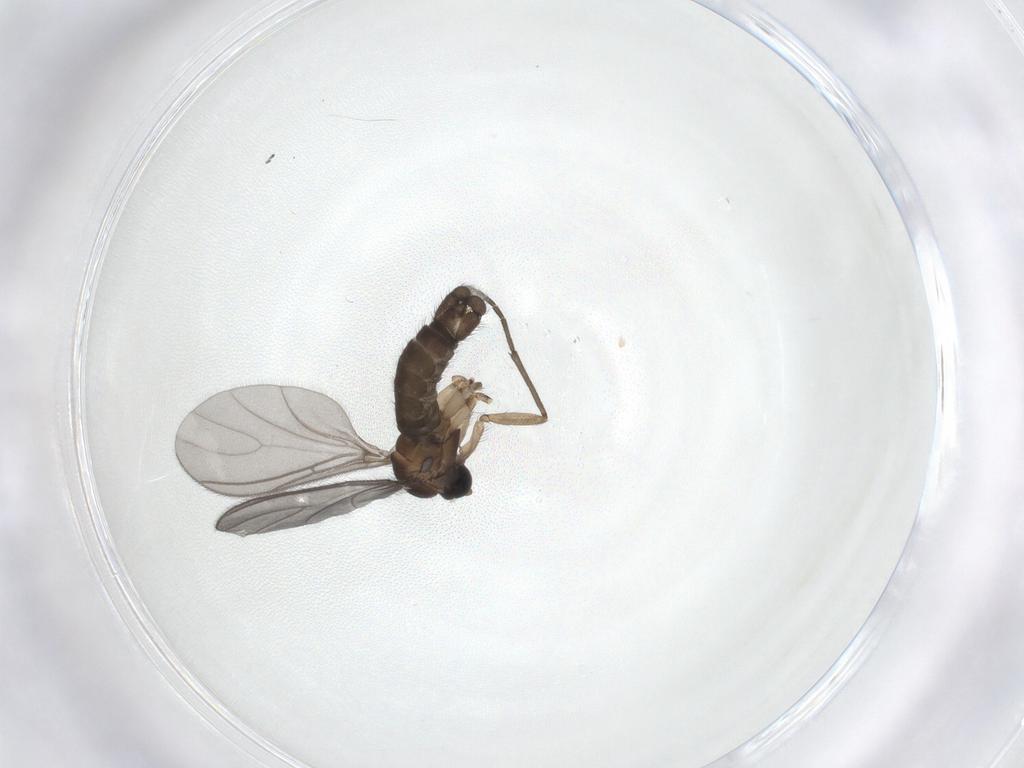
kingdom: Animalia
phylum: Arthropoda
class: Insecta
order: Diptera
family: Sciaridae
